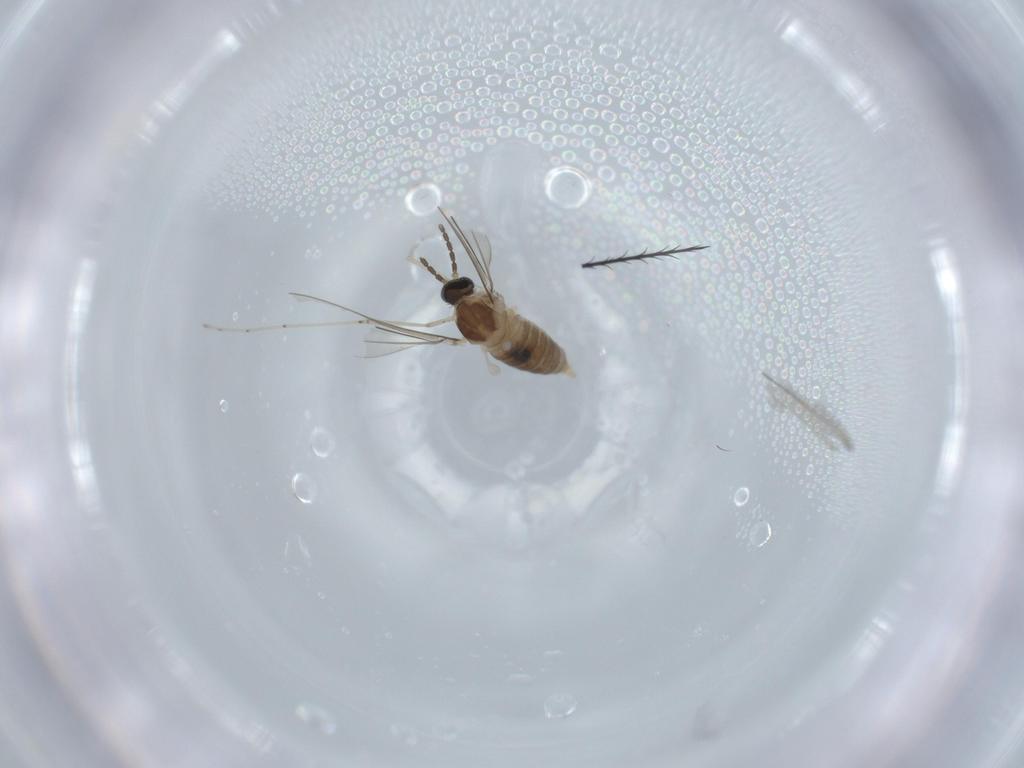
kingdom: Animalia
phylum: Arthropoda
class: Insecta
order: Diptera
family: Cecidomyiidae
